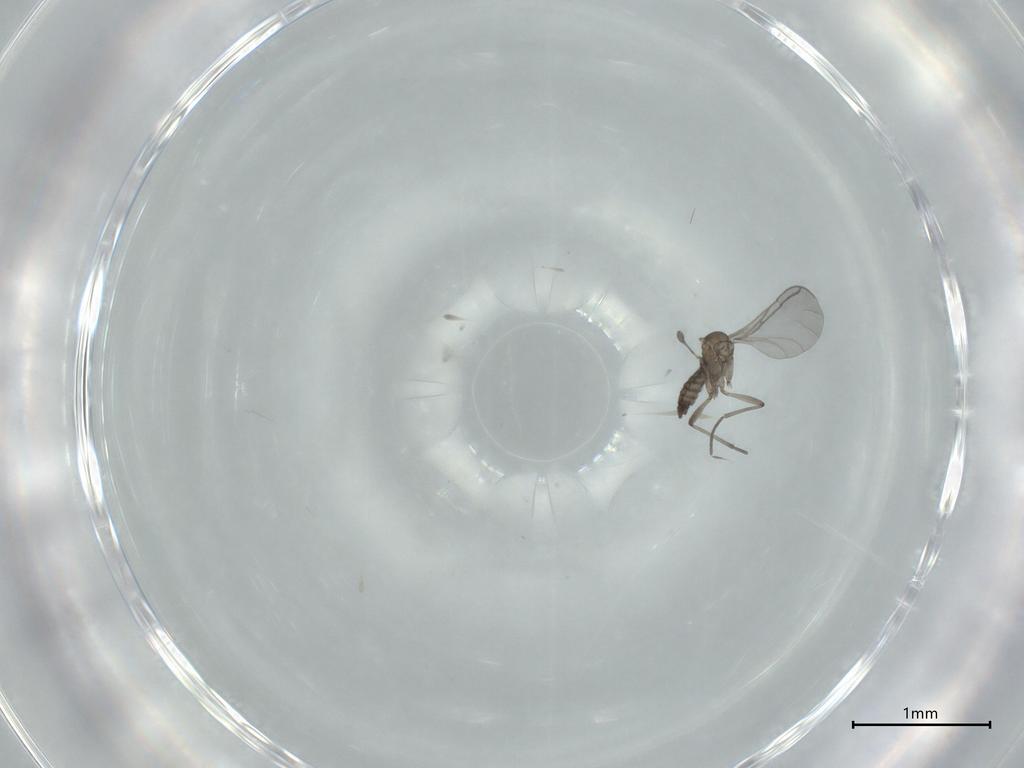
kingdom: Animalia
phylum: Arthropoda
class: Insecta
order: Diptera
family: Sciaridae
